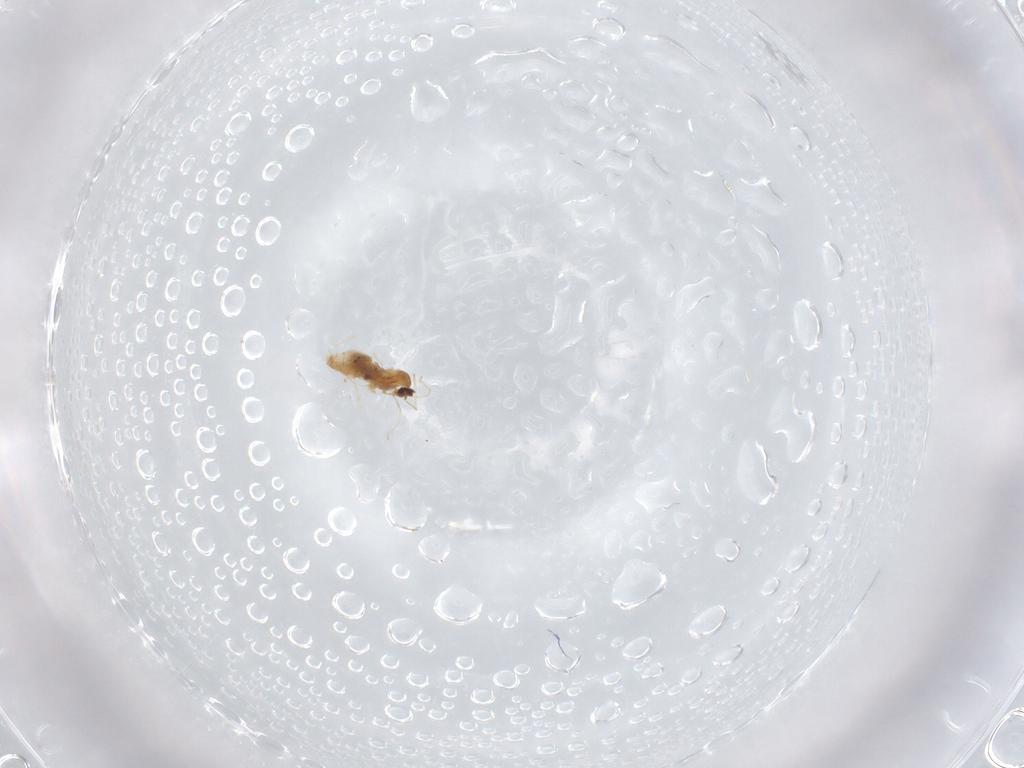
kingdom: Animalia
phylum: Arthropoda
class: Insecta
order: Diptera
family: Cecidomyiidae
